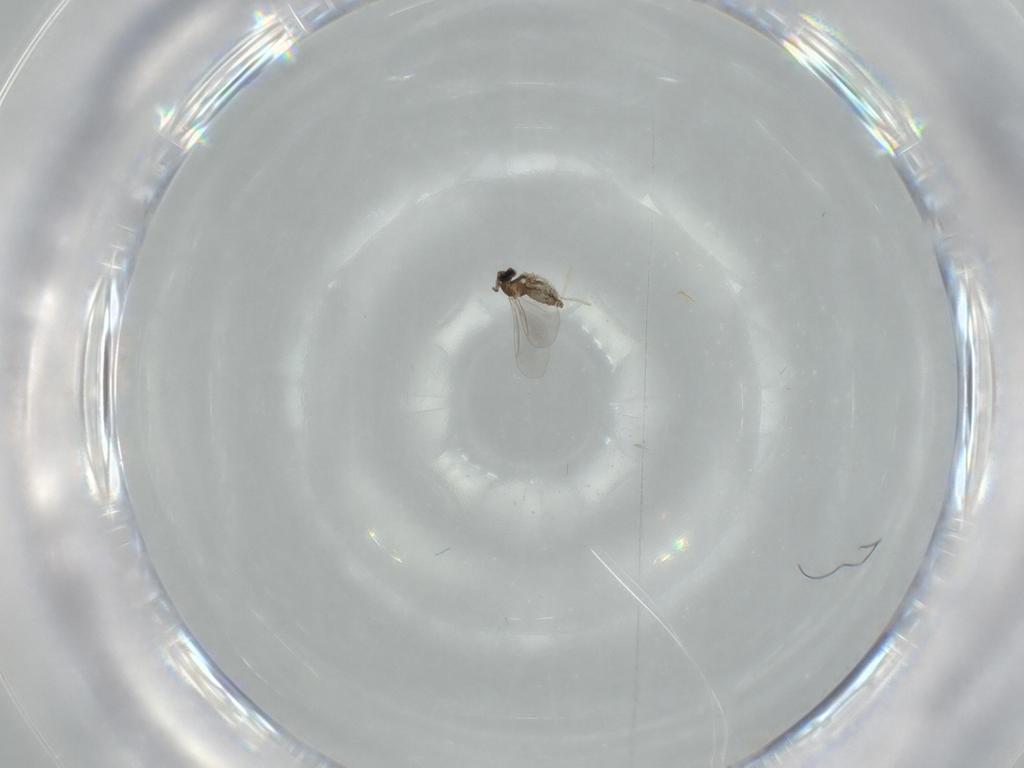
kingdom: Animalia
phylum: Arthropoda
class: Insecta
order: Diptera
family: Cecidomyiidae
